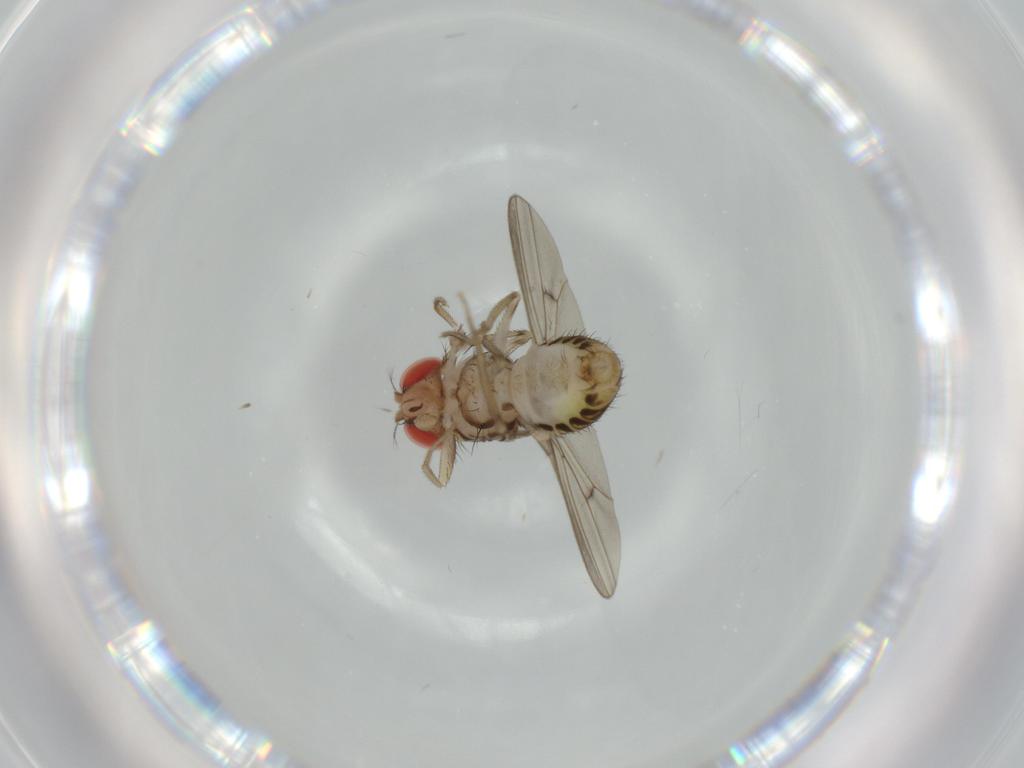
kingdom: Animalia
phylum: Arthropoda
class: Insecta
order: Diptera
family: Drosophilidae
